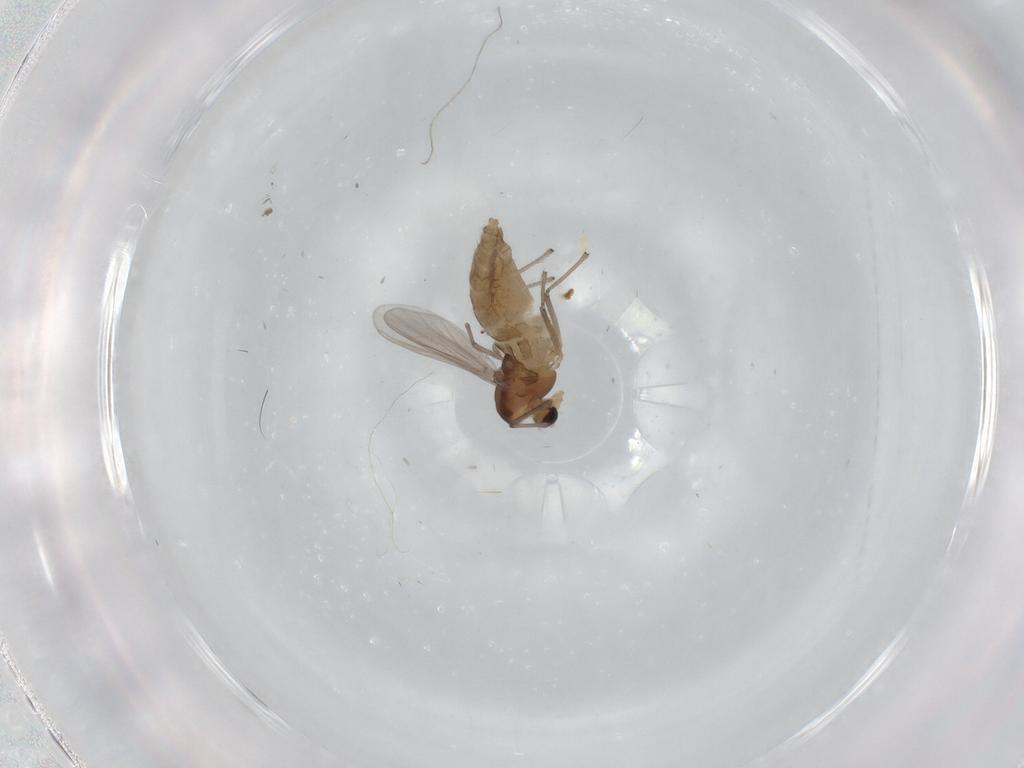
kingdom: Animalia
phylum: Arthropoda
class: Insecta
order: Diptera
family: Chironomidae
